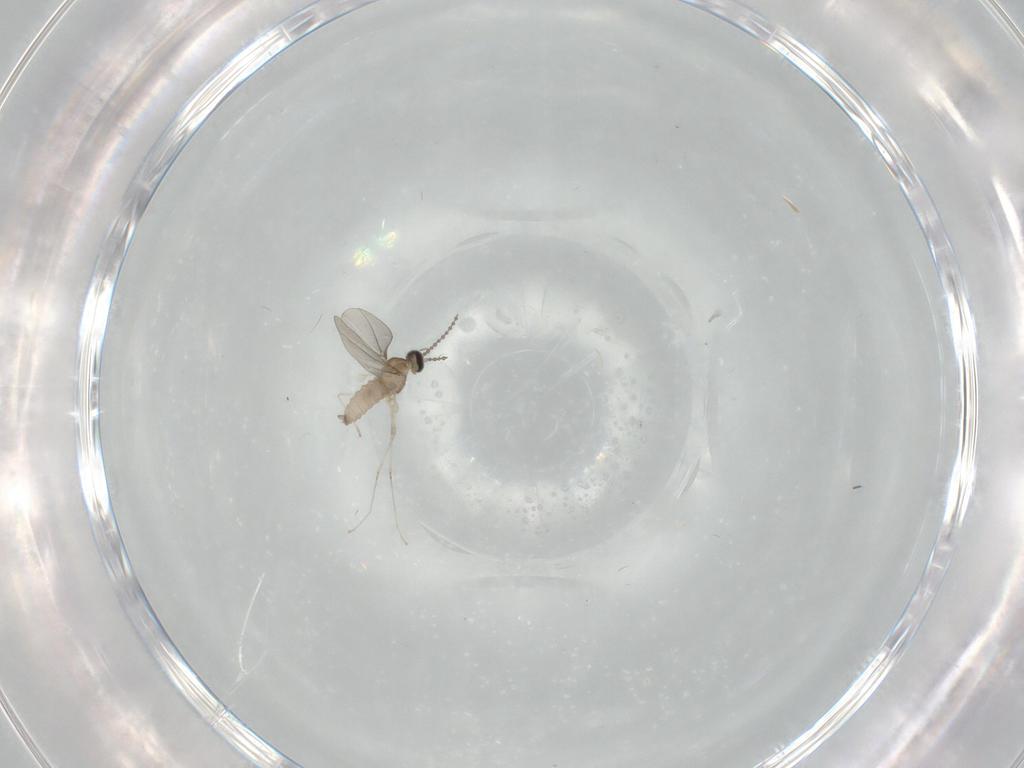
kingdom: Animalia
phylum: Arthropoda
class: Insecta
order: Diptera
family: Cecidomyiidae
